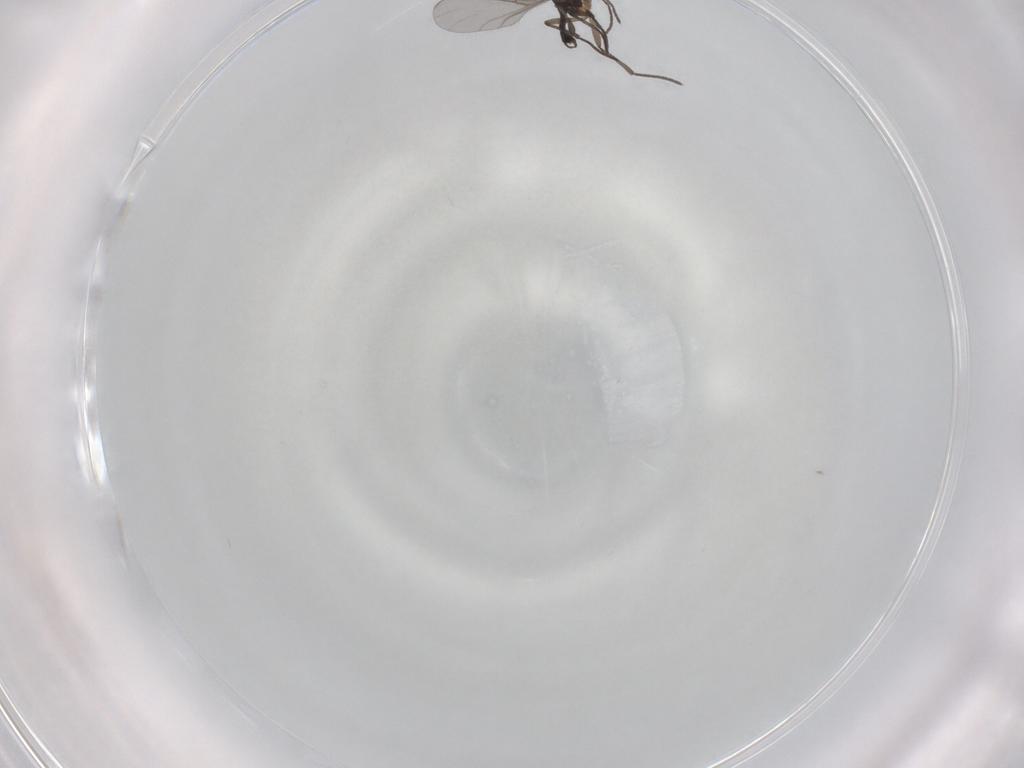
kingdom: Animalia
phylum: Arthropoda
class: Insecta
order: Diptera
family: Sciaridae
